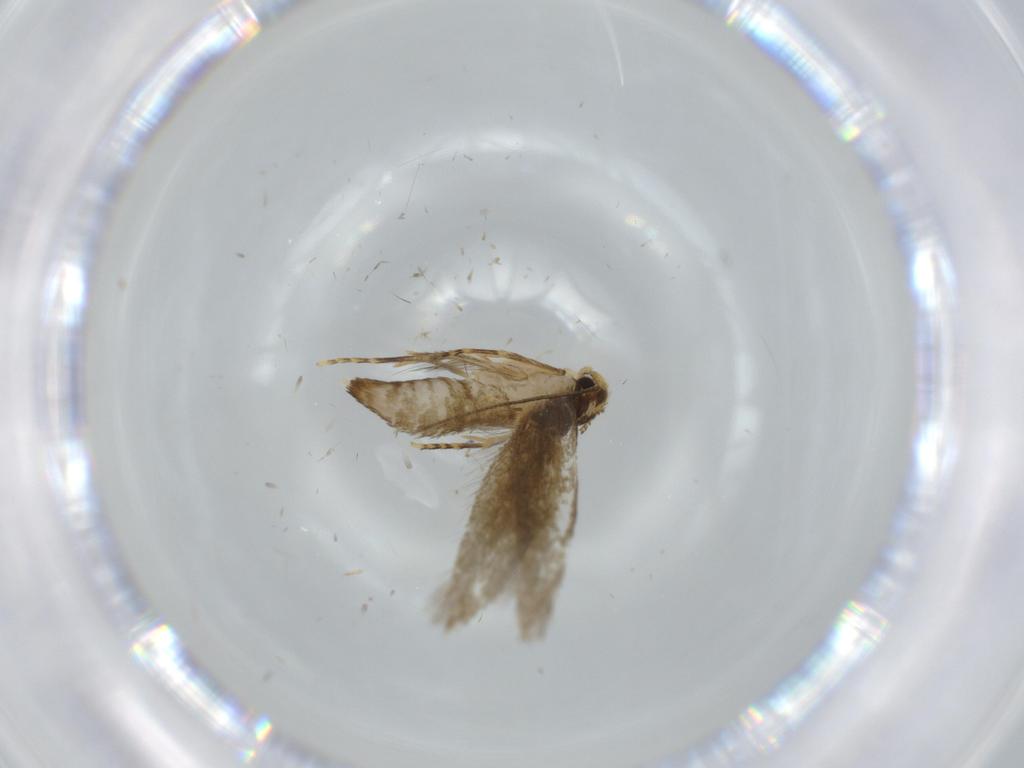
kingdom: Animalia
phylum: Arthropoda
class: Insecta
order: Lepidoptera
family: Tineidae
